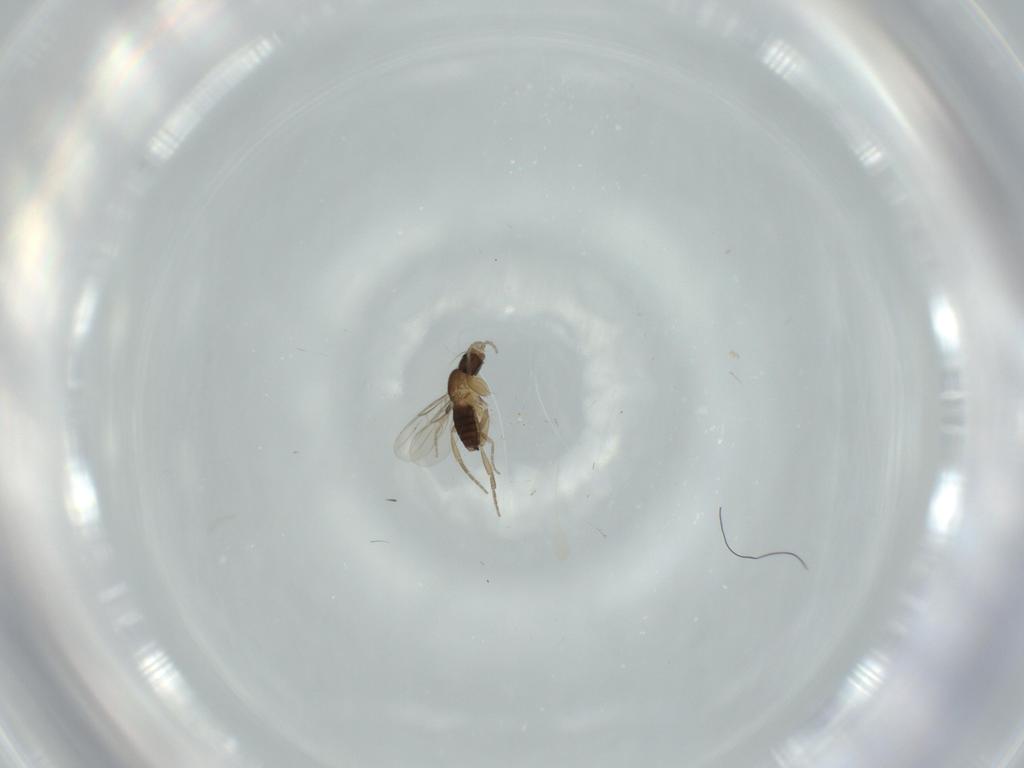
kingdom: Animalia
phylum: Arthropoda
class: Insecta
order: Diptera
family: Phoridae
